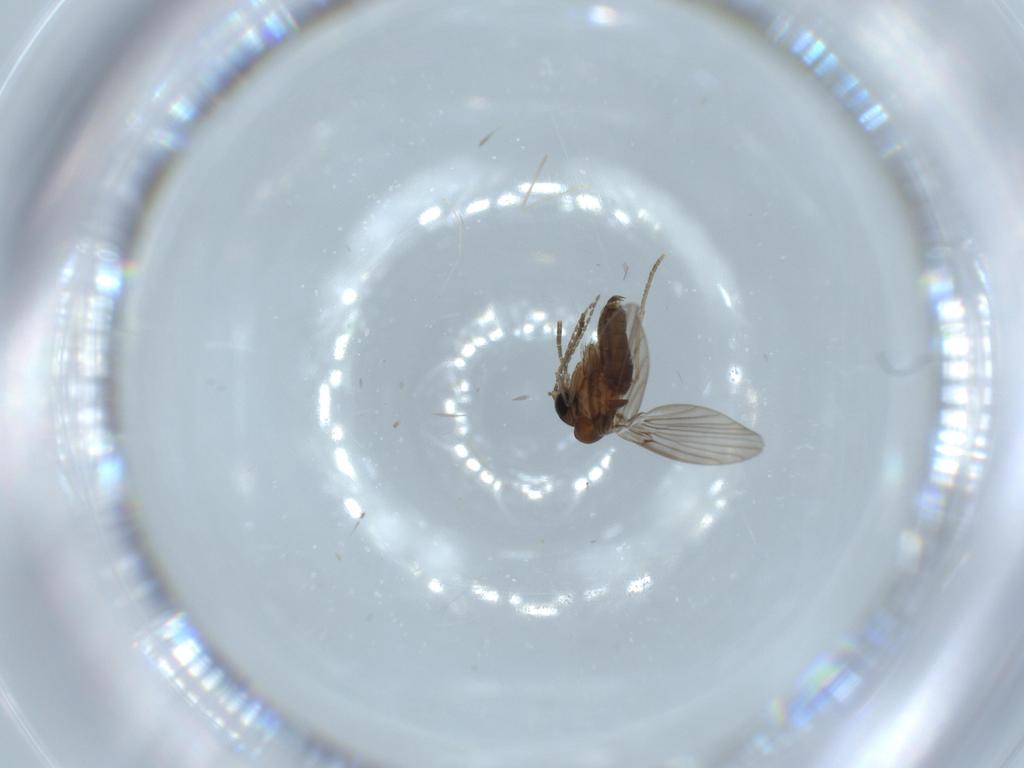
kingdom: Animalia
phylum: Arthropoda
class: Insecta
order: Diptera
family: Sciaridae
